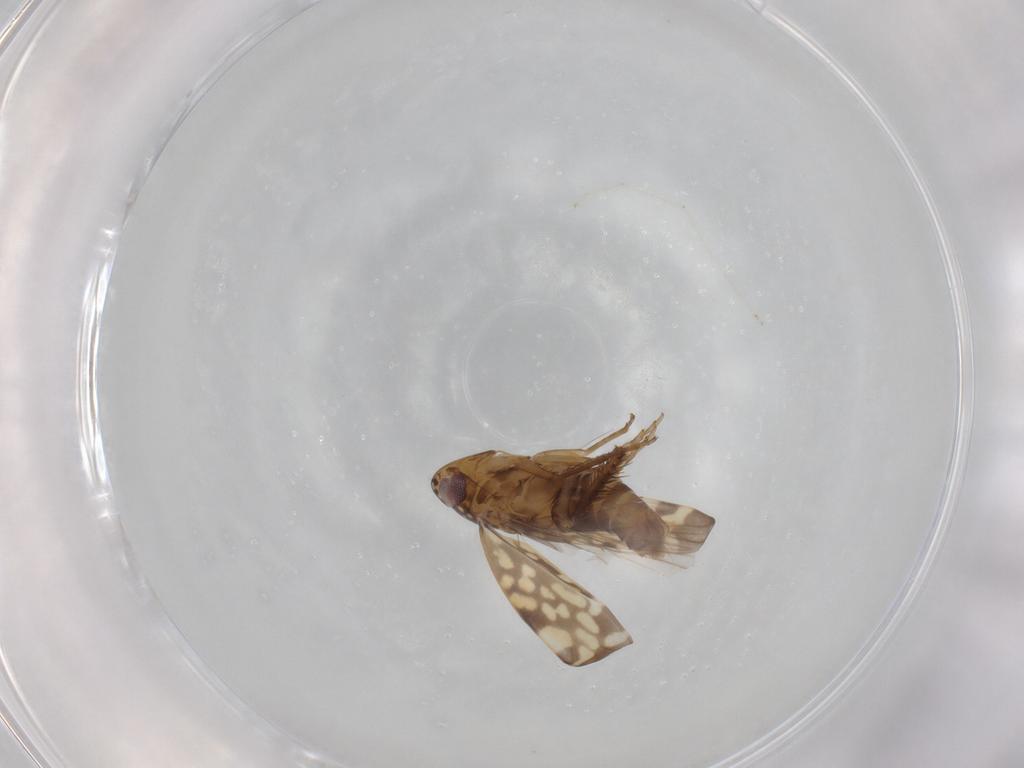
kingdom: Animalia
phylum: Arthropoda
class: Insecta
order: Hemiptera
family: Cicadellidae
